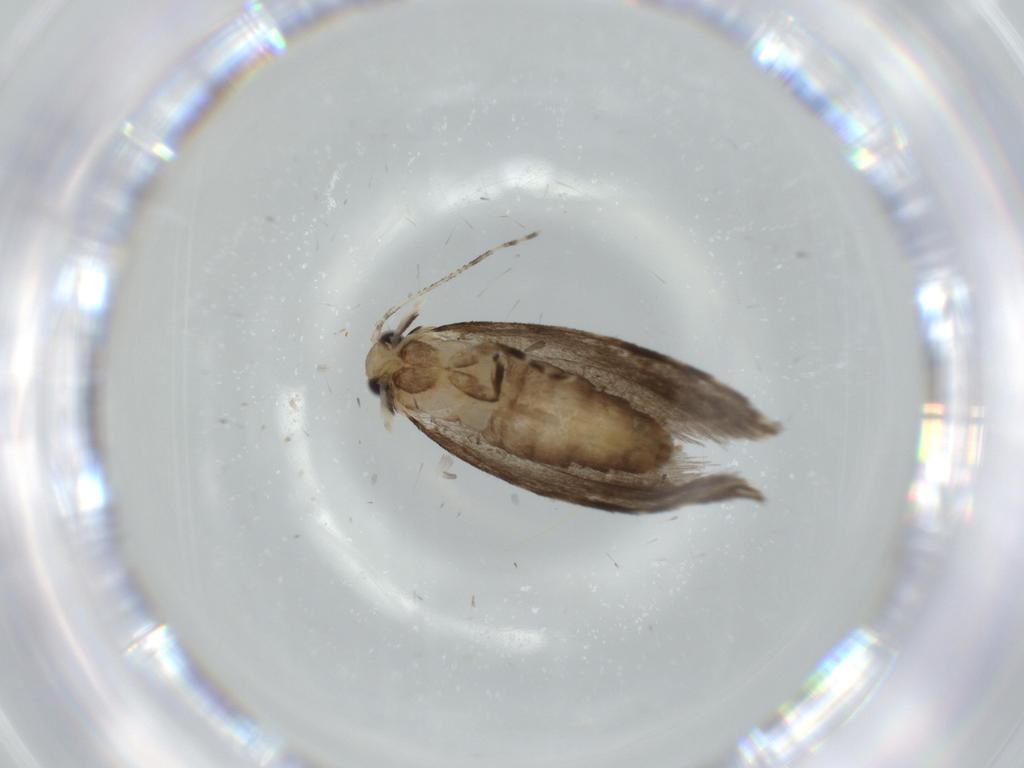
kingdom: Animalia
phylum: Arthropoda
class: Insecta
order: Lepidoptera
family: Tineidae
